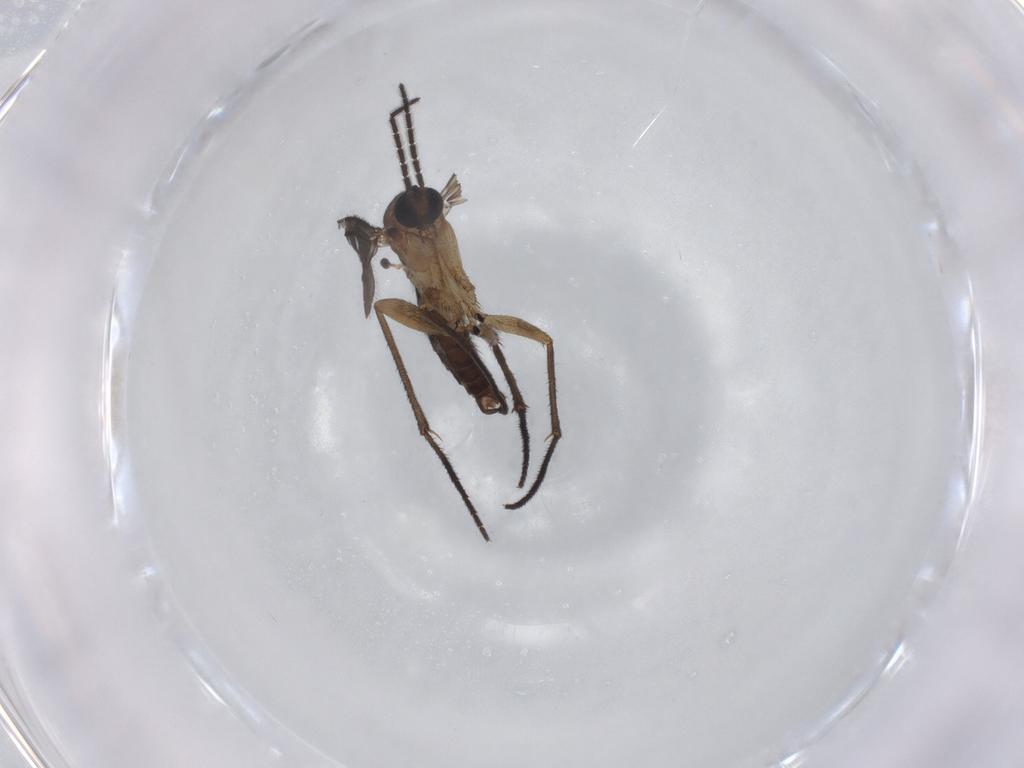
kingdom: Animalia
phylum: Arthropoda
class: Insecta
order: Diptera
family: Sciaridae
